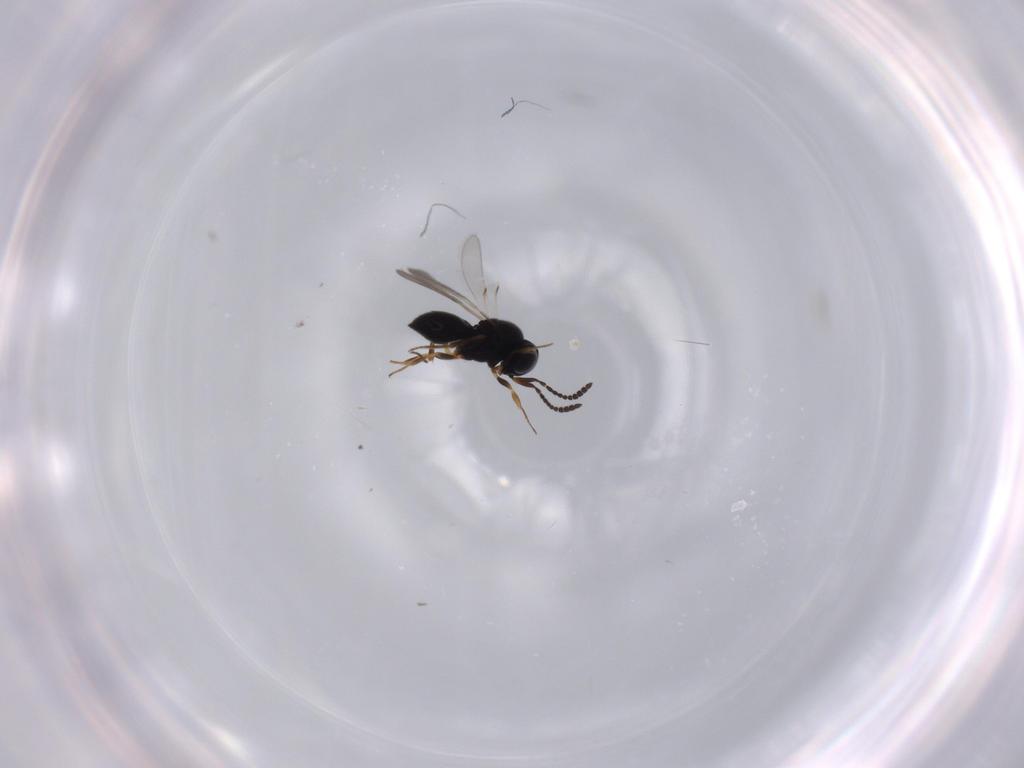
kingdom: Animalia
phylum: Arthropoda
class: Insecta
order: Hymenoptera
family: Scelionidae
